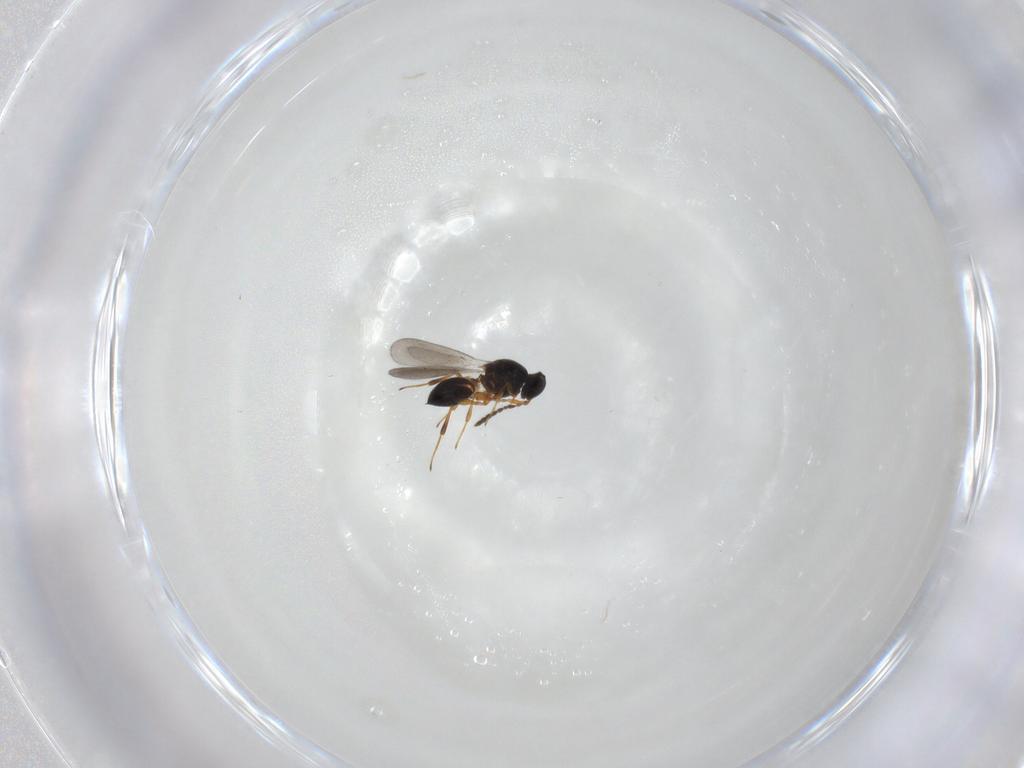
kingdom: Animalia
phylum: Arthropoda
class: Insecta
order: Hymenoptera
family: Platygastridae
